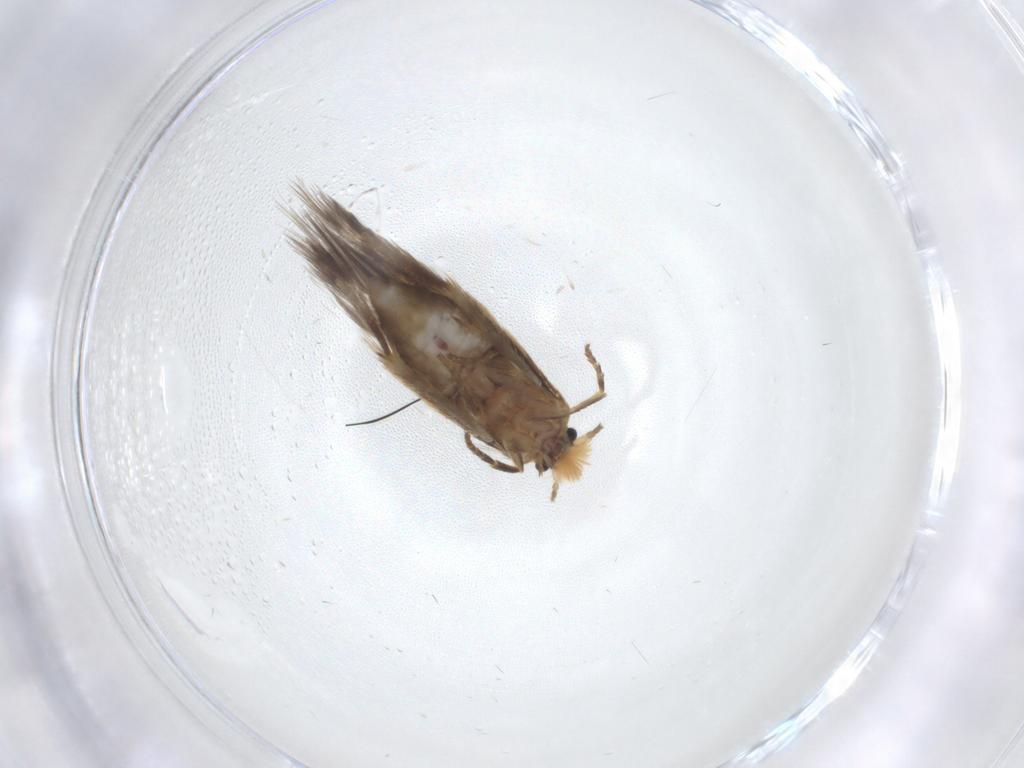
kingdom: Animalia
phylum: Arthropoda
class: Insecta
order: Lepidoptera
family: Nepticulidae
